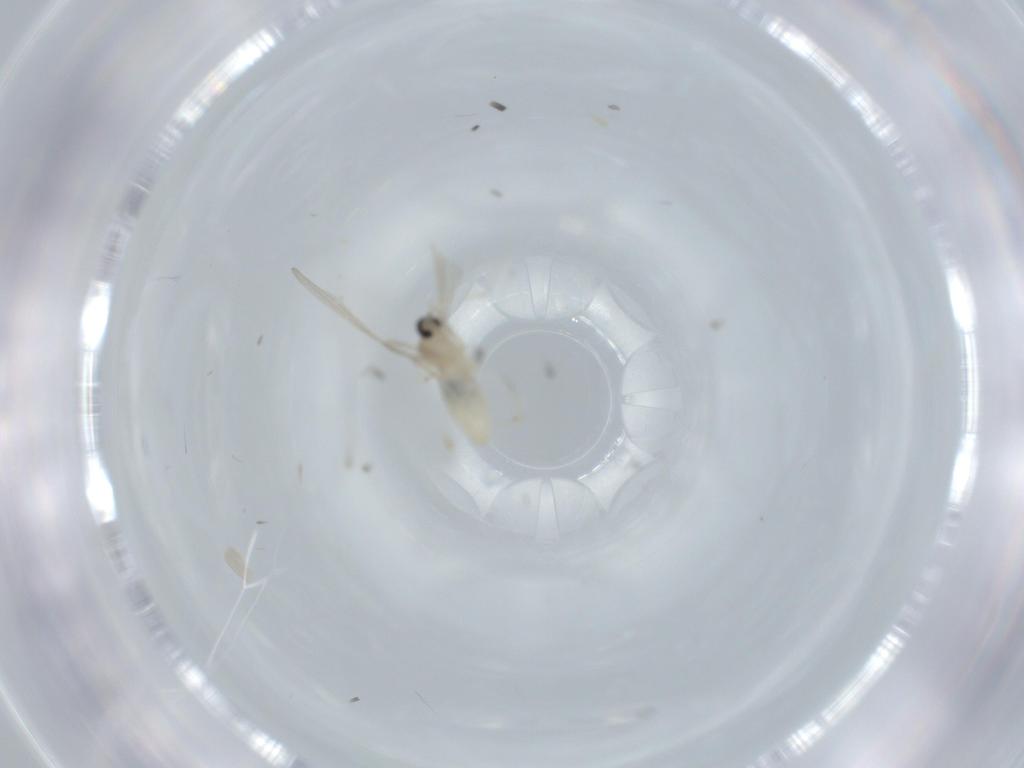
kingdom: Animalia
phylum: Arthropoda
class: Insecta
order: Diptera
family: Cecidomyiidae
